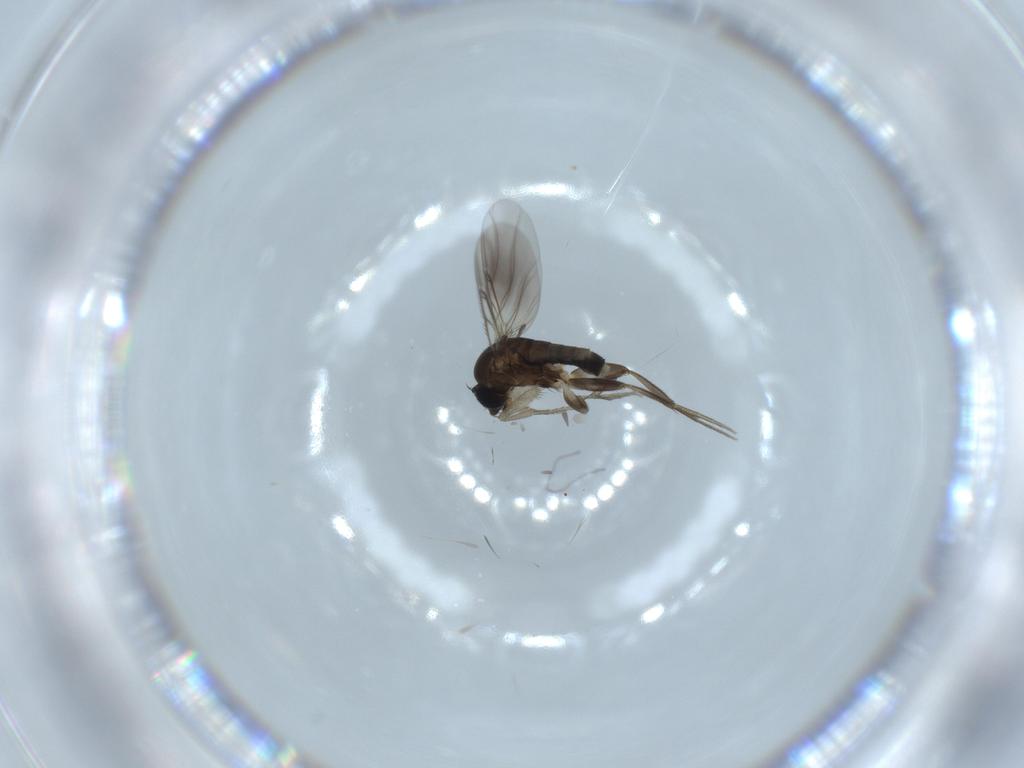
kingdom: Animalia
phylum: Arthropoda
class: Insecta
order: Diptera
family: Phoridae
